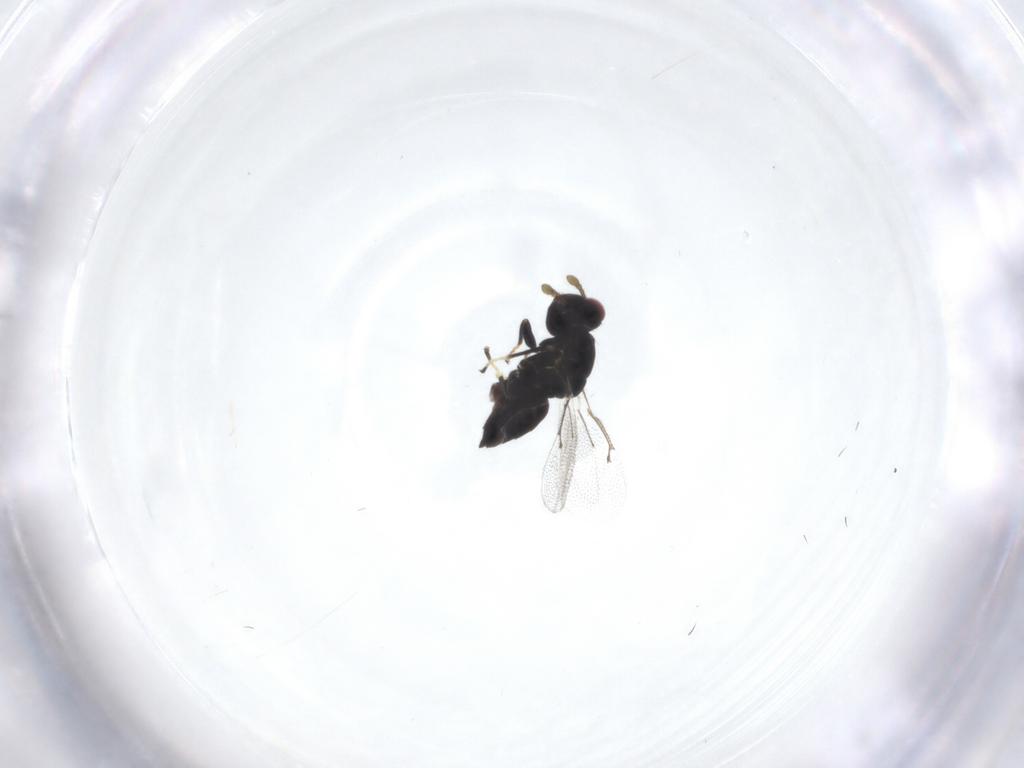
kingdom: Animalia
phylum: Arthropoda
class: Insecta
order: Hymenoptera
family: Eulophidae
